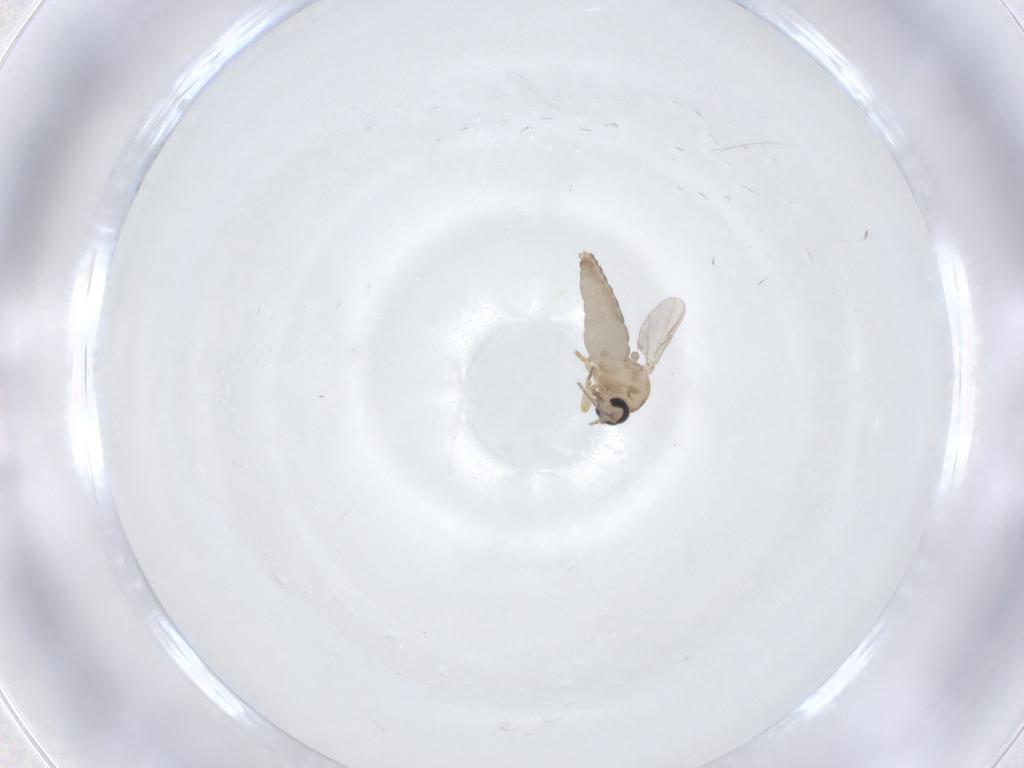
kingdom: Animalia
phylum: Arthropoda
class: Insecta
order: Diptera
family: Ceratopogonidae
